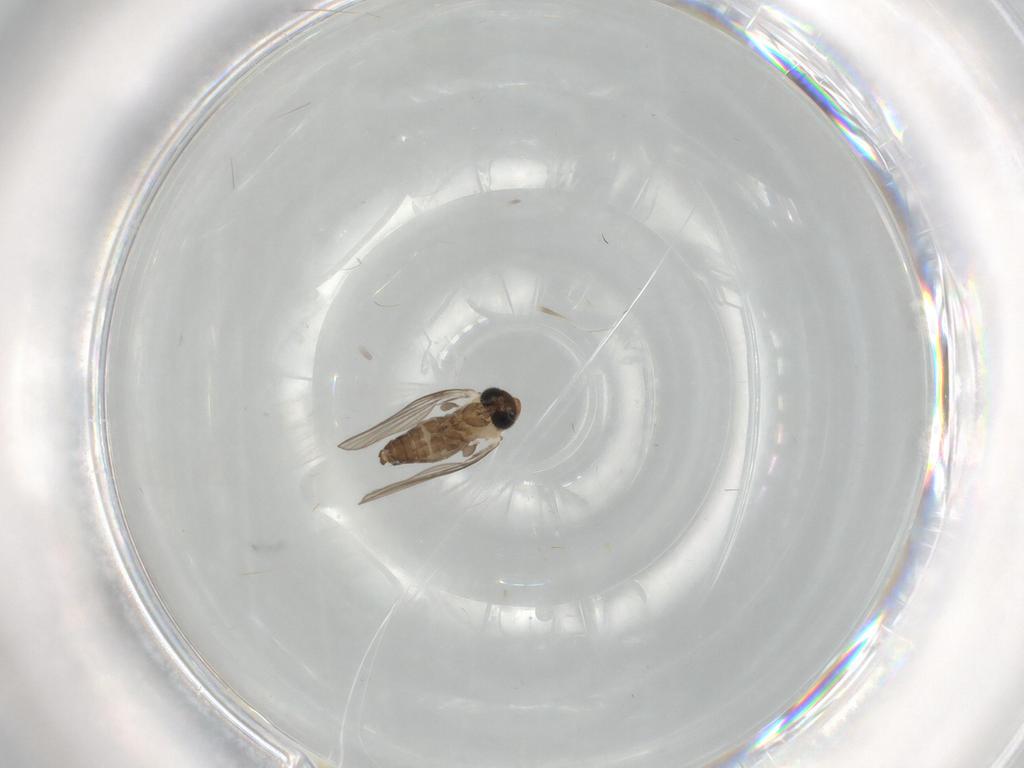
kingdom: Animalia
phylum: Arthropoda
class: Insecta
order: Diptera
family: Psychodidae
